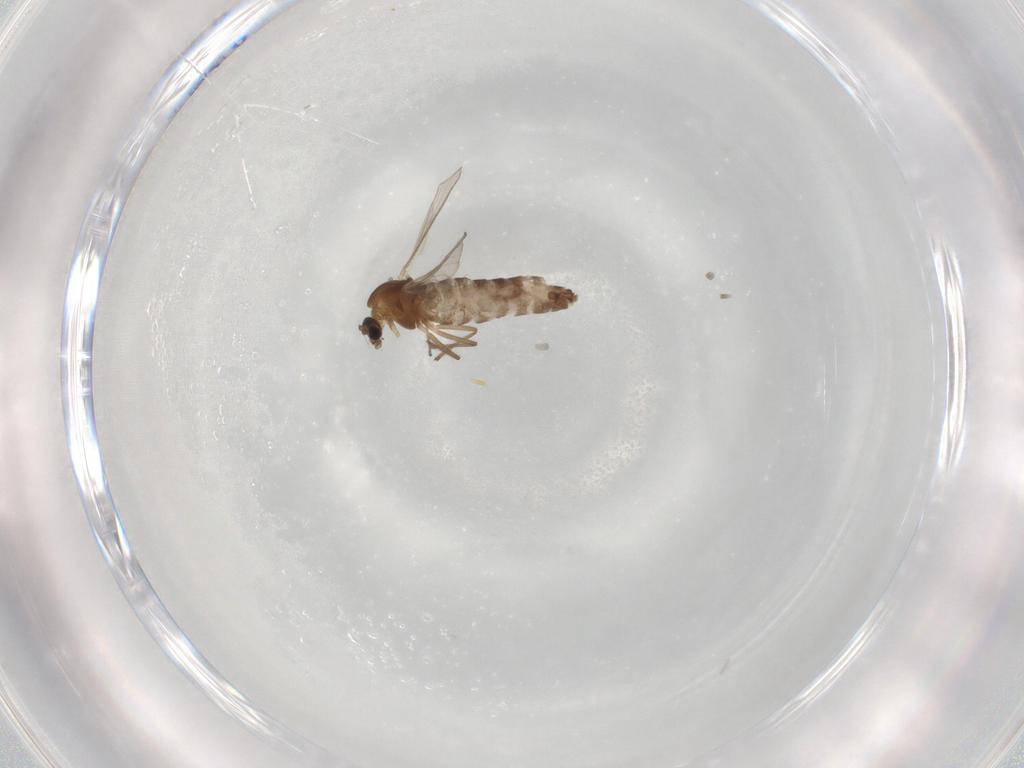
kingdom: Animalia
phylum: Arthropoda
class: Insecta
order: Diptera
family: Chironomidae
